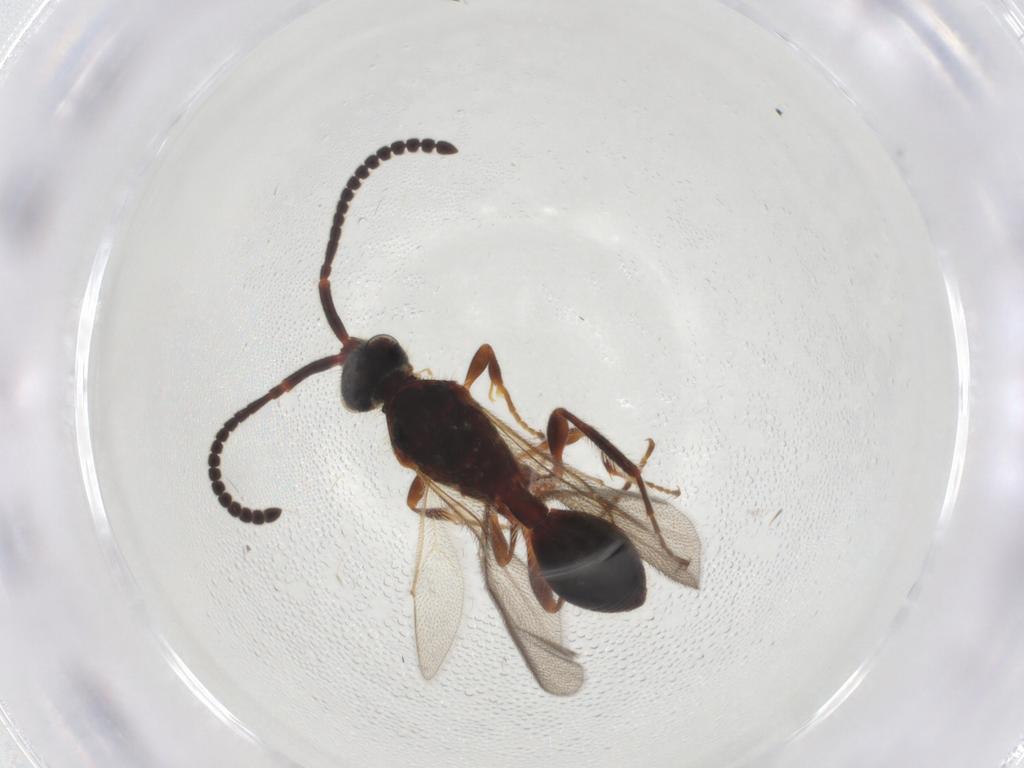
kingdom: Animalia
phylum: Arthropoda
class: Insecta
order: Hymenoptera
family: Diapriidae
